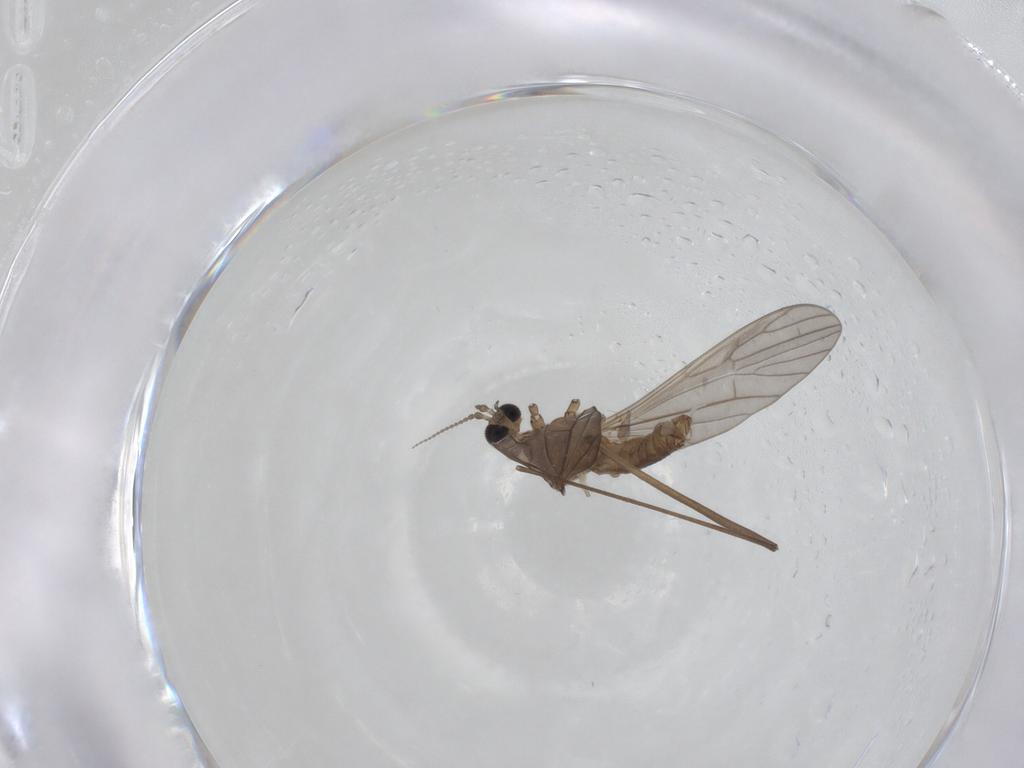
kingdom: Animalia
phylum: Arthropoda
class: Insecta
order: Diptera
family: Limoniidae
